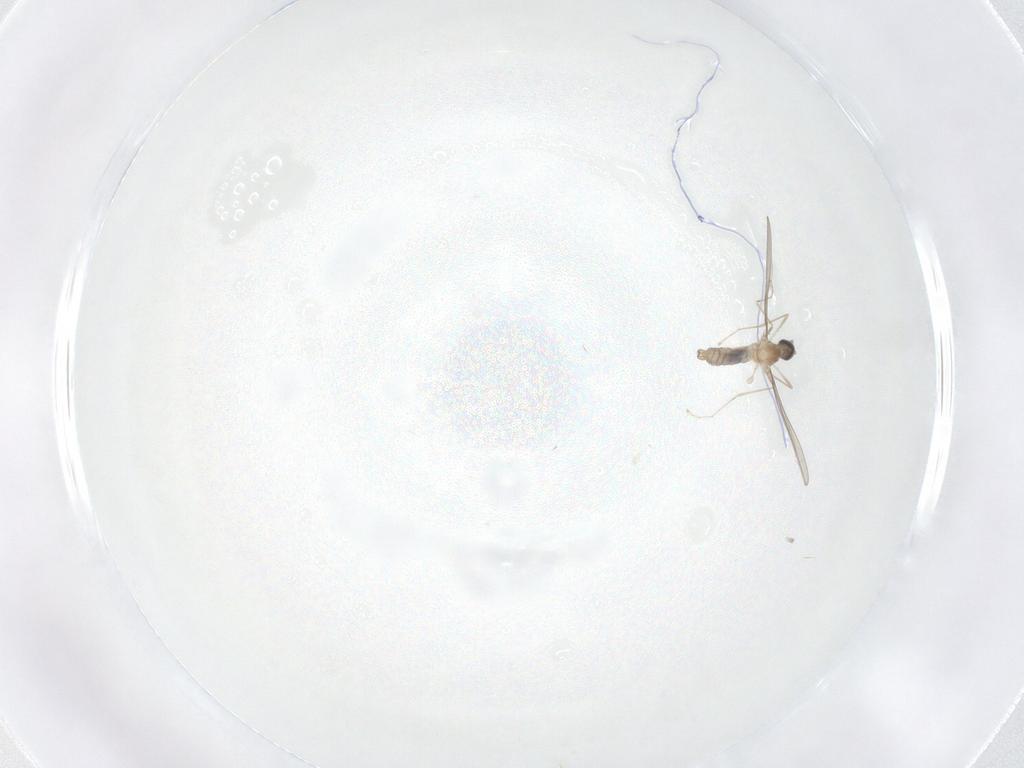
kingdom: Animalia
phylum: Arthropoda
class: Insecta
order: Diptera
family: Cecidomyiidae
